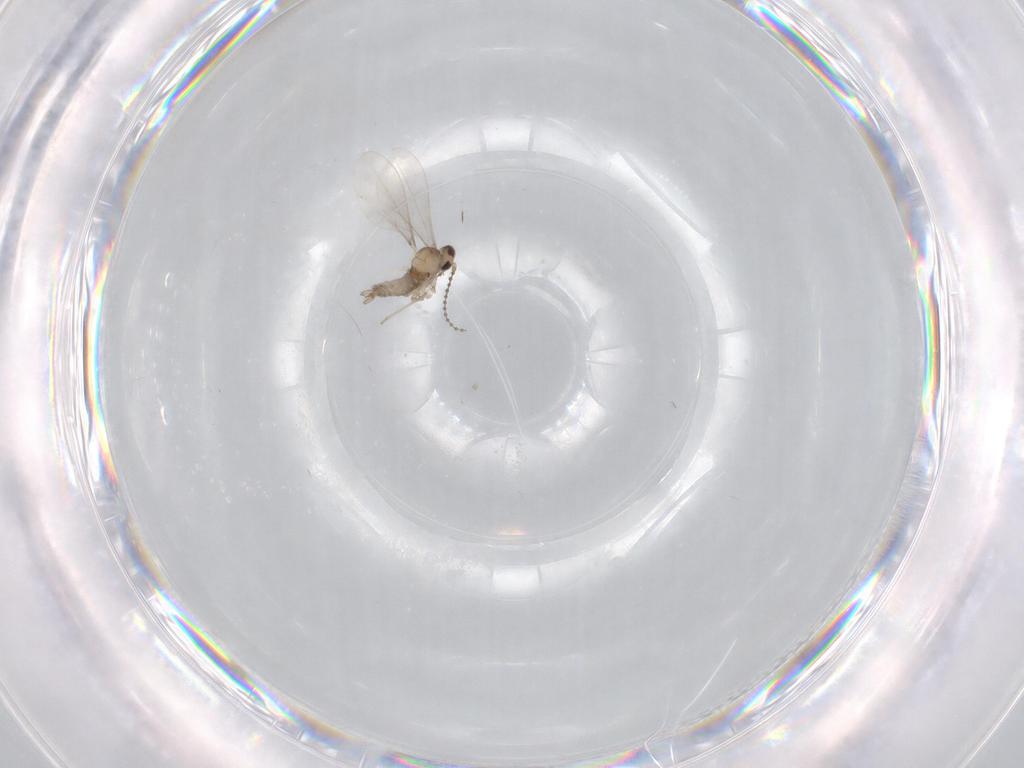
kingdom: Animalia
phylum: Arthropoda
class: Insecta
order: Diptera
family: Cecidomyiidae
